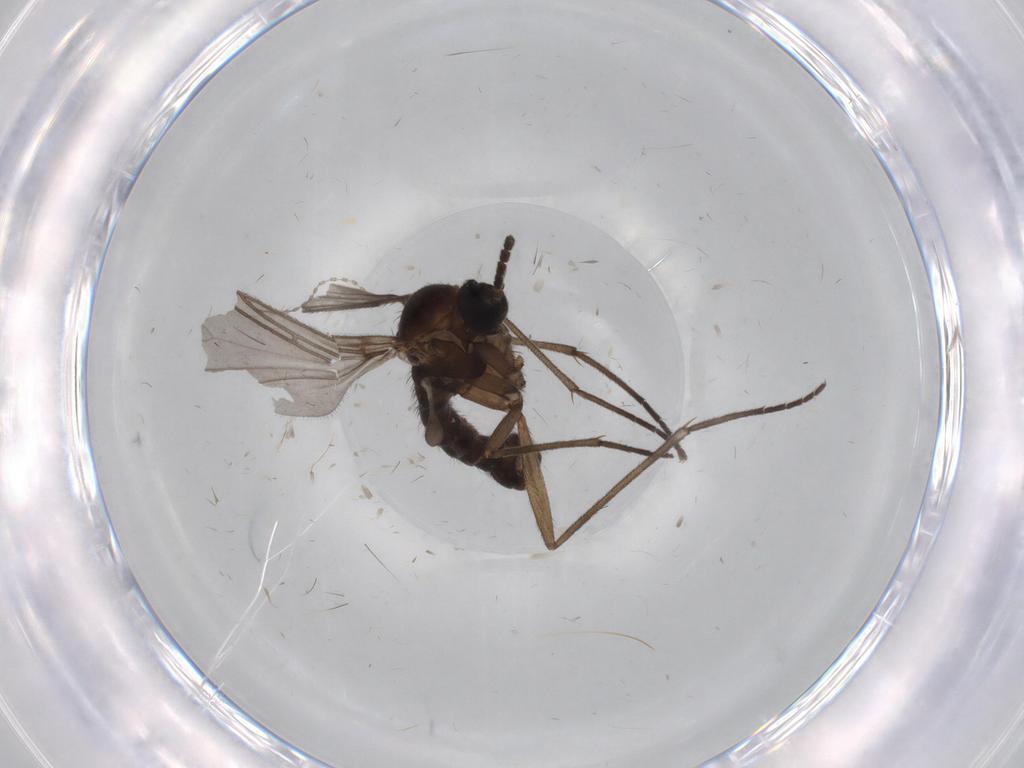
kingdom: Animalia
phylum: Arthropoda
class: Insecta
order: Diptera
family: Sciaridae
